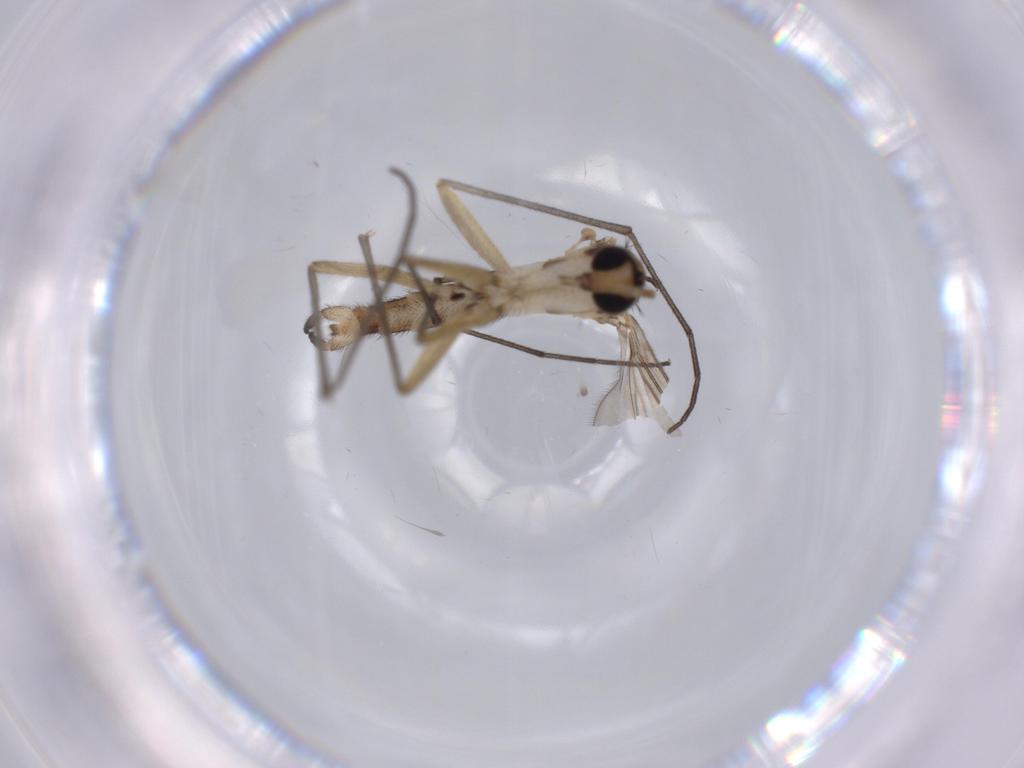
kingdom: Animalia
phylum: Arthropoda
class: Insecta
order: Diptera
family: Sciaridae
